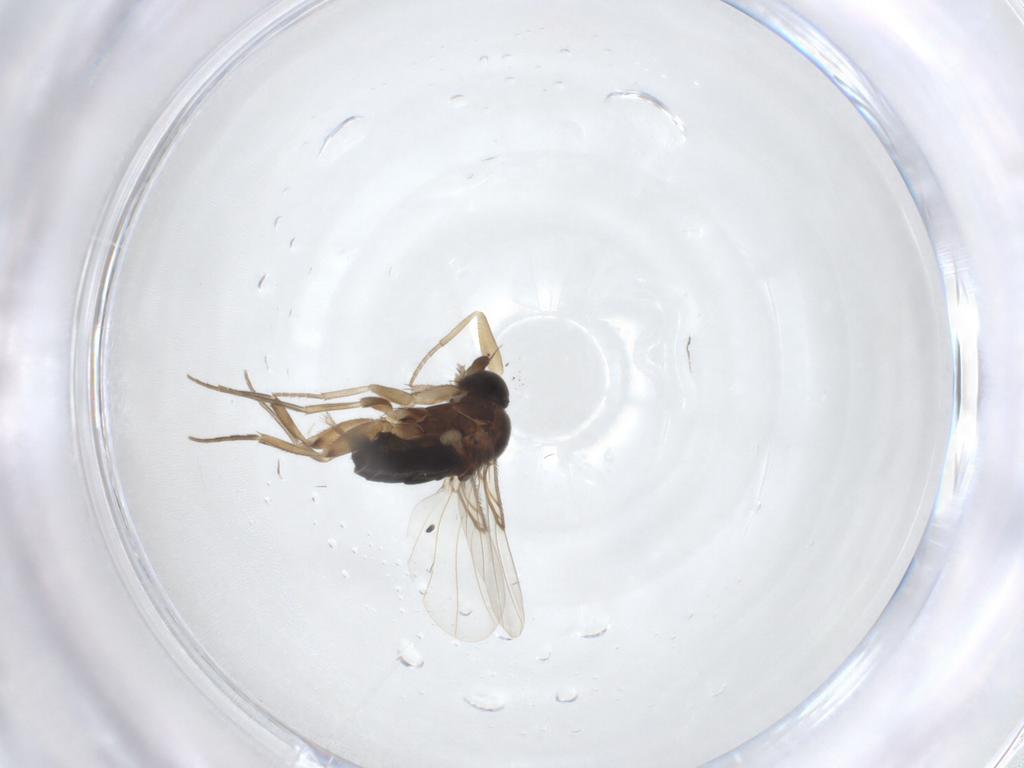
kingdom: Animalia
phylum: Arthropoda
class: Insecta
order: Diptera
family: Phoridae
